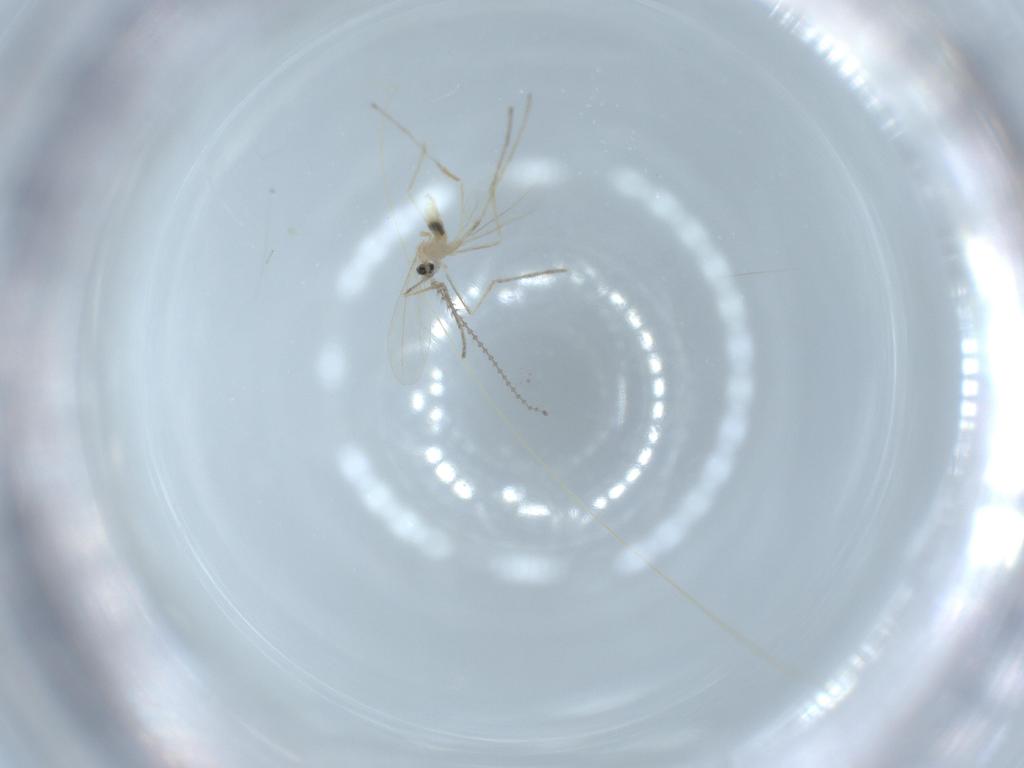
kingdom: Animalia
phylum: Arthropoda
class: Insecta
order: Diptera
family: Cecidomyiidae
